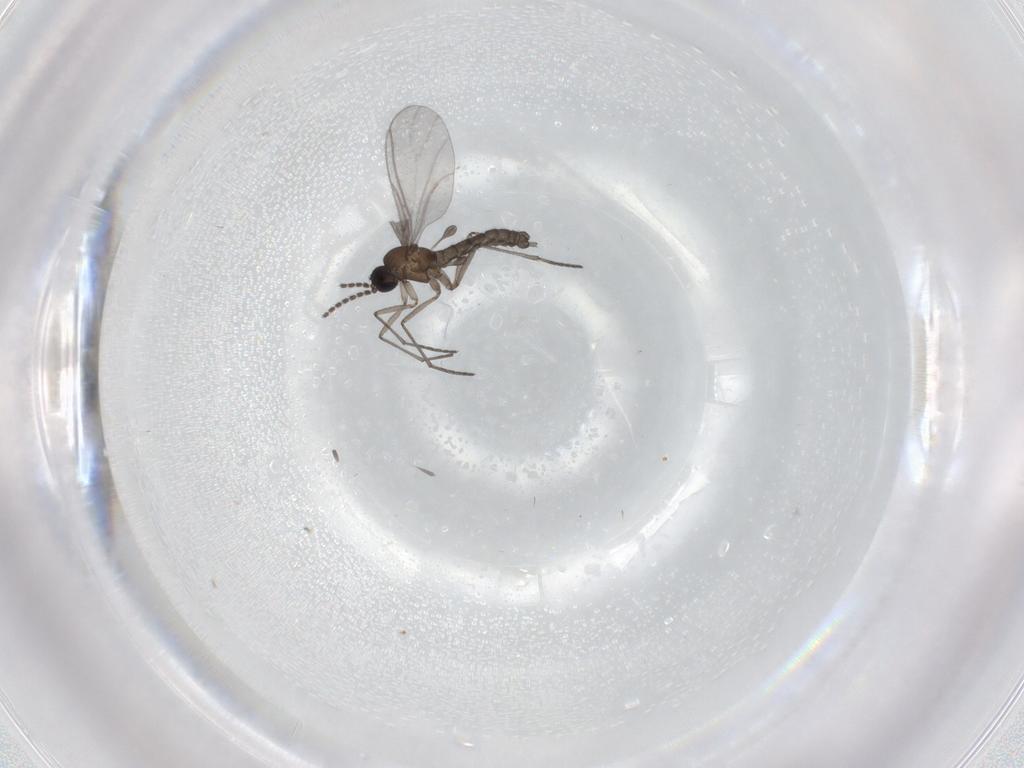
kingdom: Animalia
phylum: Arthropoda
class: Insecta
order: Diptera
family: Sciaridae
